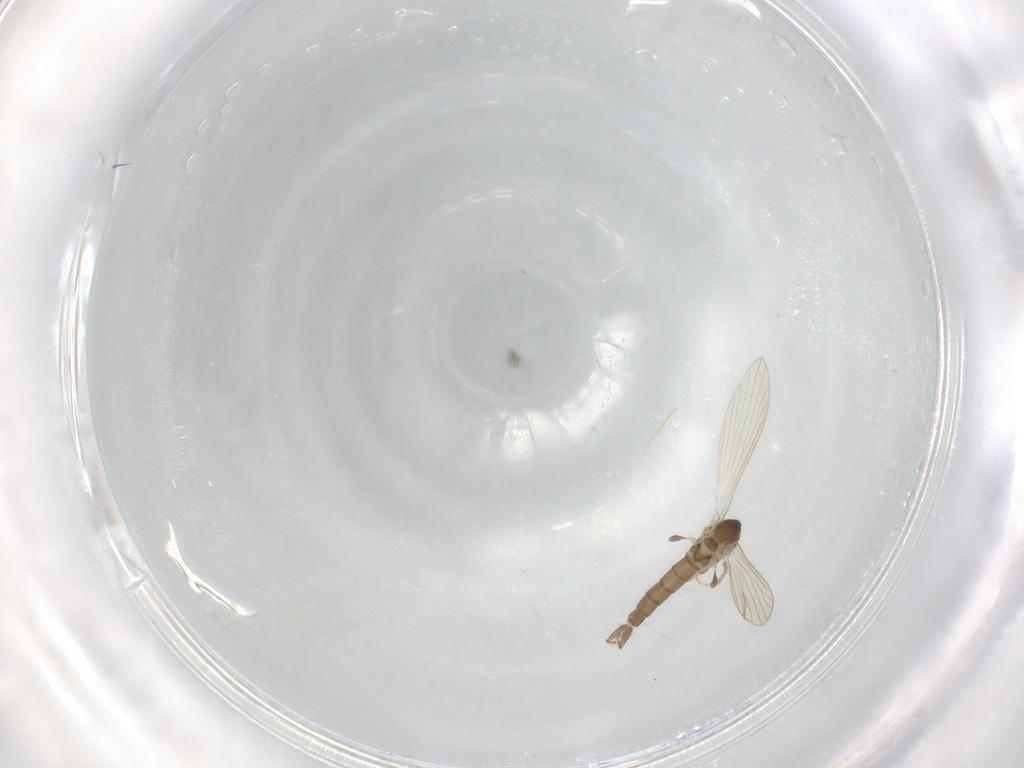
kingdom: Animalia
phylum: Arthropoda
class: Insecta
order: Diptera
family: Psychodidae
